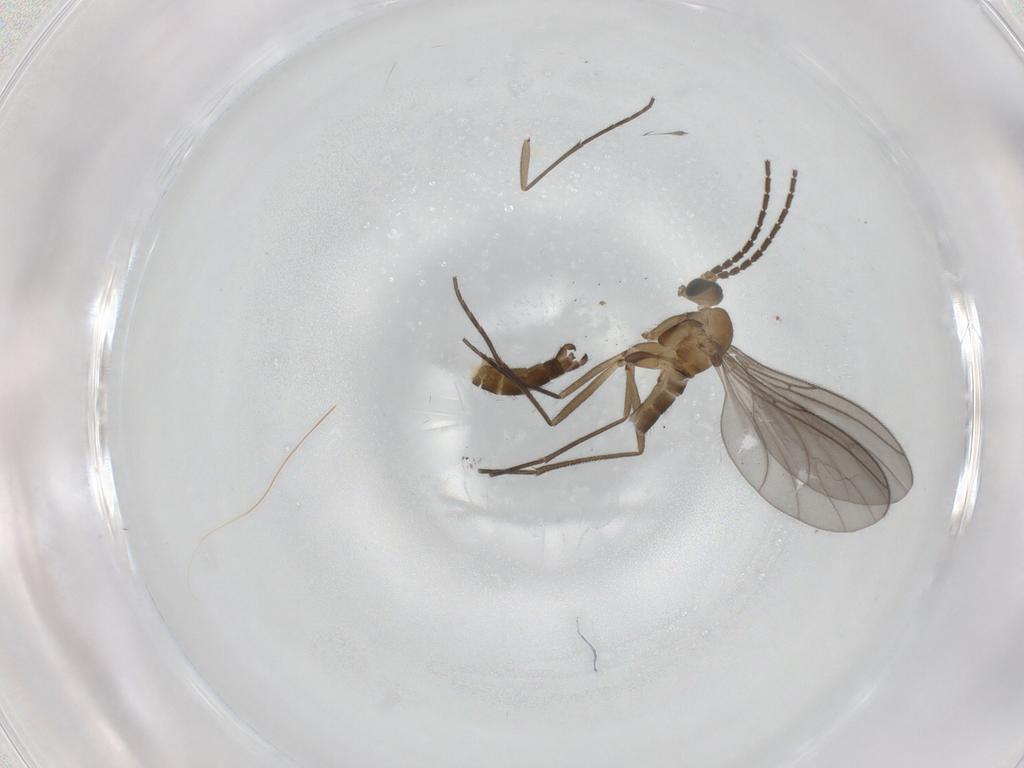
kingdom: Animalia
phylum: Arthropoda
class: Insecta
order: Diptera
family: Ceratopogonidae
